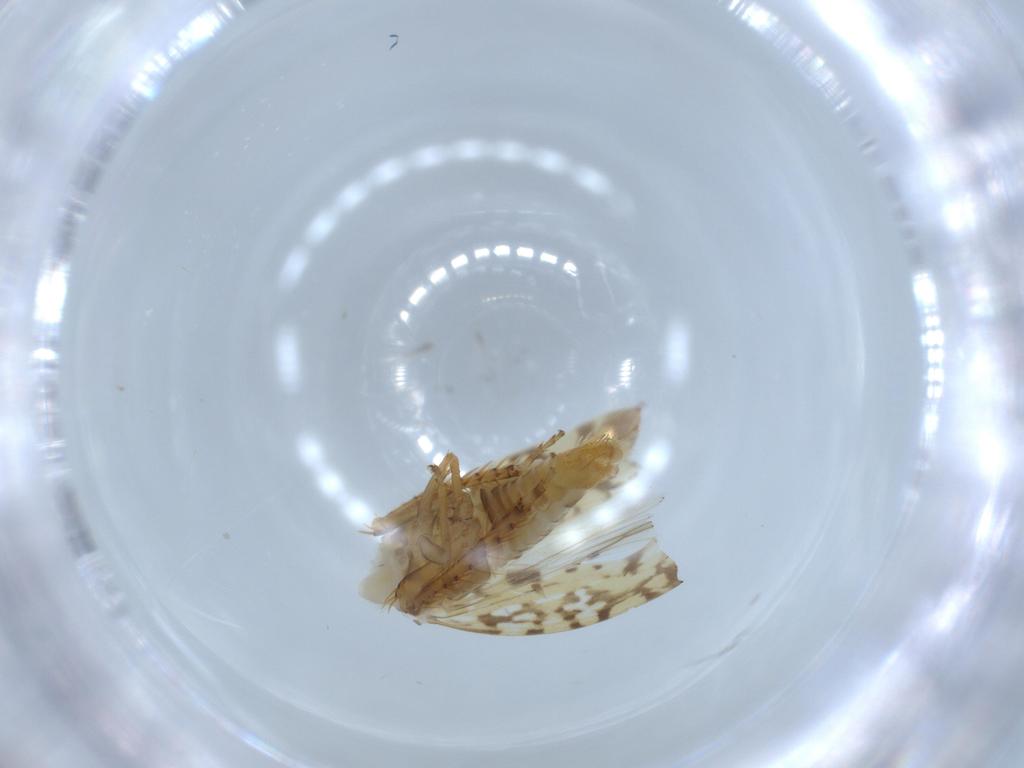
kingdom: Animalia
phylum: Arthropoda
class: Insecta
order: Hemiptera
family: Cicadellidae
